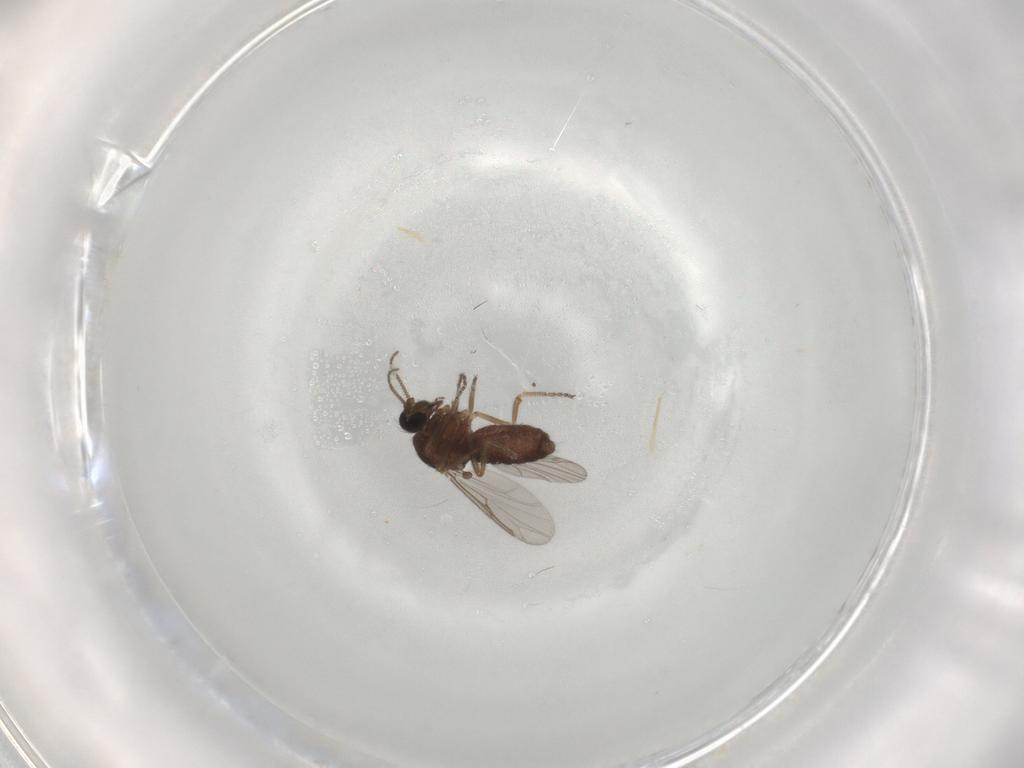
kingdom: Animalia
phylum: Arthropoda
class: Insecta
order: Diptera
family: Ceratopogonidae
